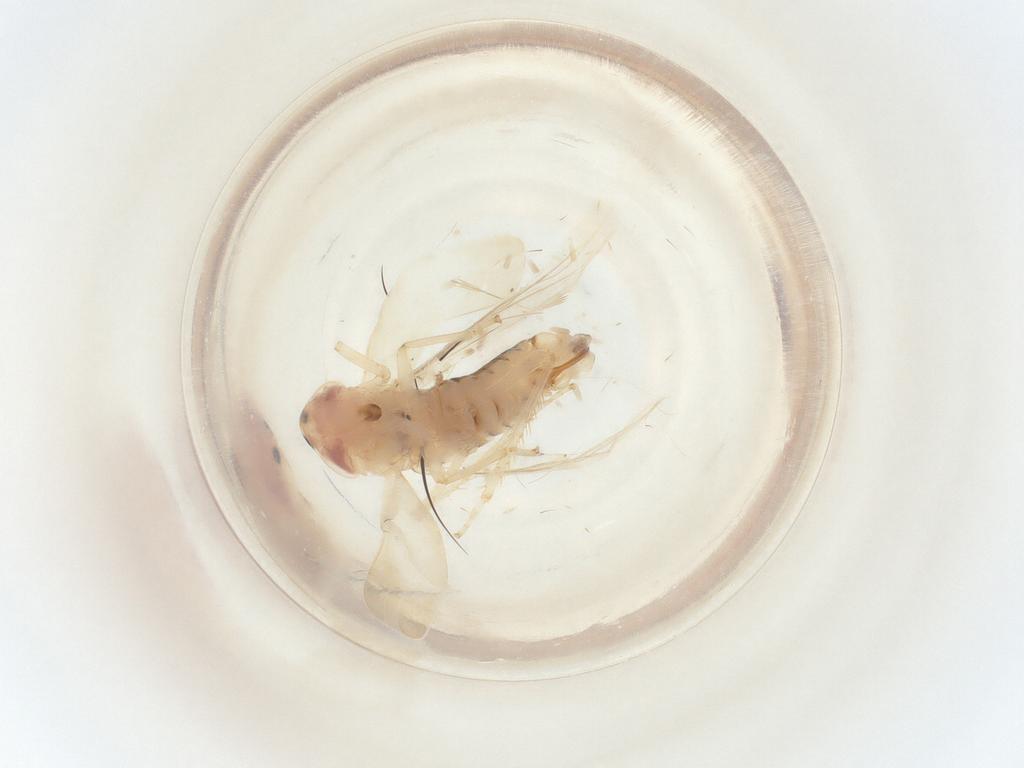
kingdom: Animalia
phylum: Arthropoda
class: Insecta
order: Hemiptera
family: Cicadellidae
